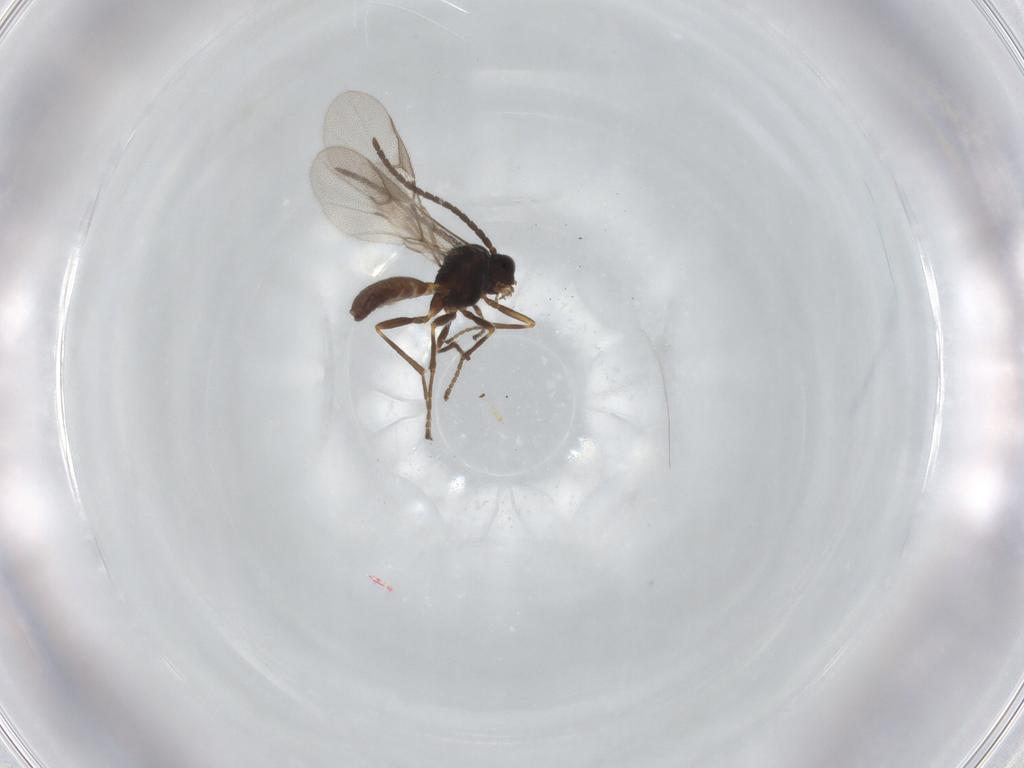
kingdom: Animalia
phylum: Arthropoda
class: Insecta
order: Hymenoptera
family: Braconidae
